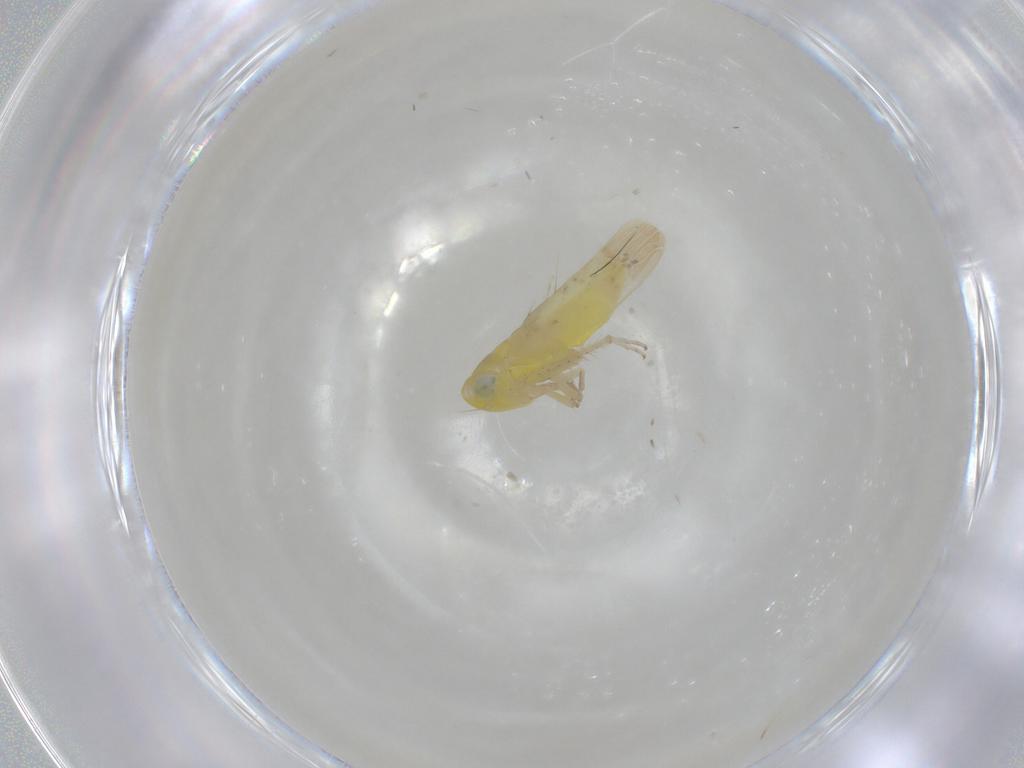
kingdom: Animalia
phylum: Arthropoda
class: Insecta
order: Hemiptera
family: Cicadellidae
